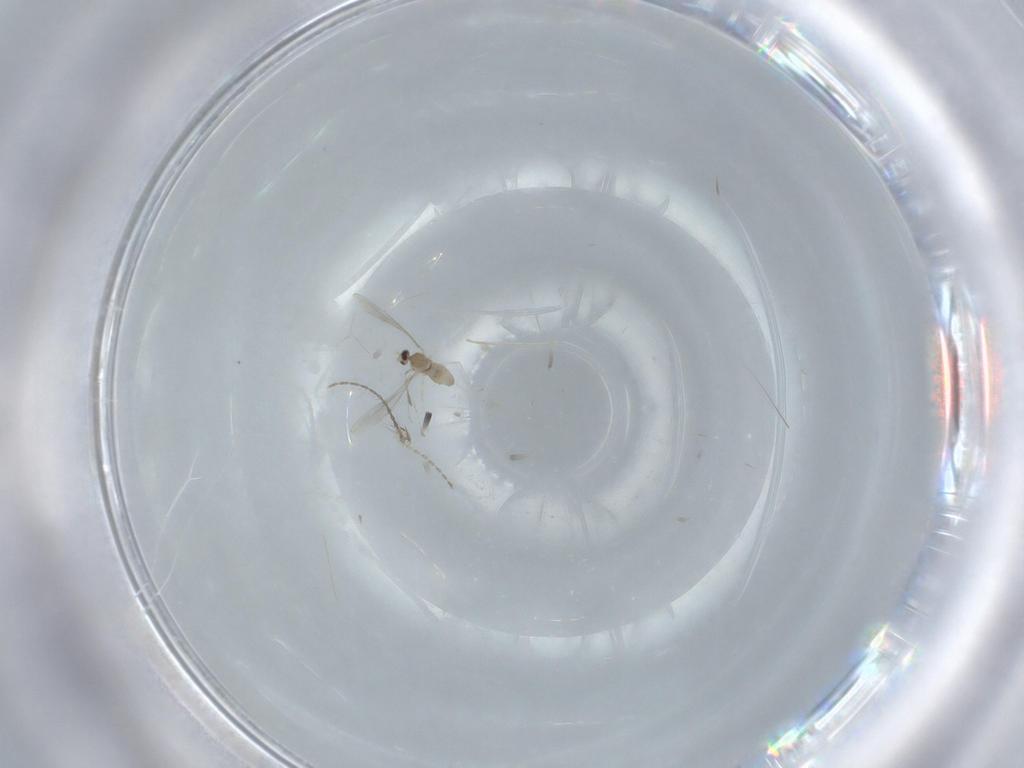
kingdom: Animalia
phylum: Arthropoda
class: Insecta
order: Diptera
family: Cecidomyiidae
